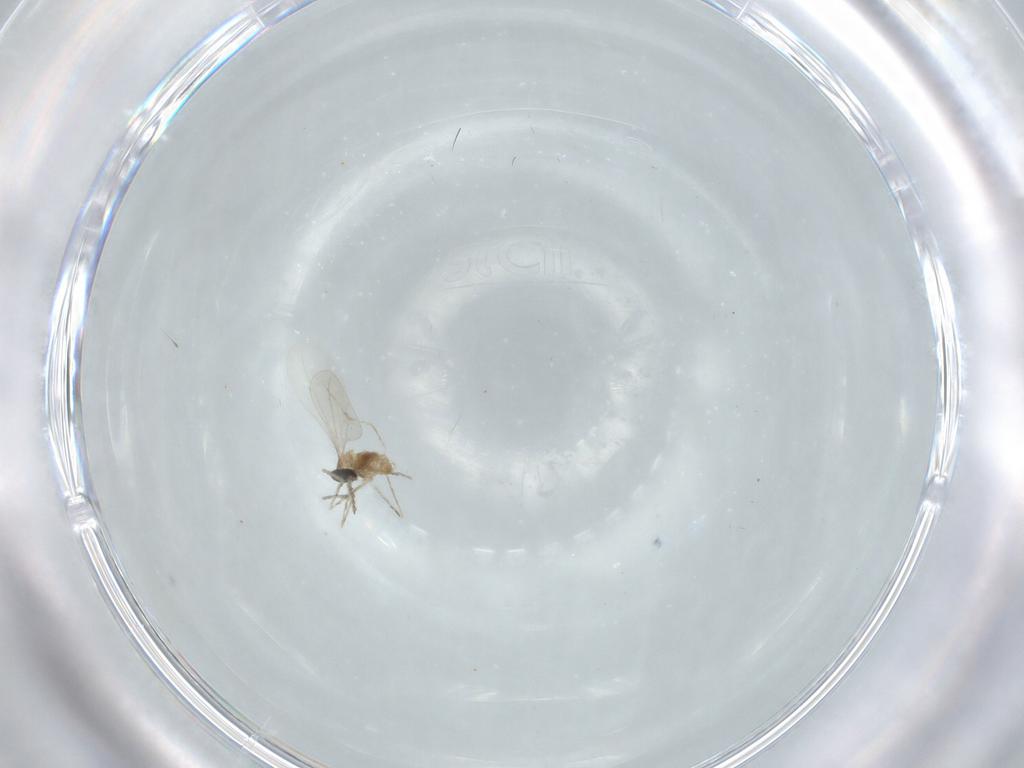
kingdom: Animalia
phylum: Arthropoda
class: Insecta
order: Diptera
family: Cecidomyiidae
